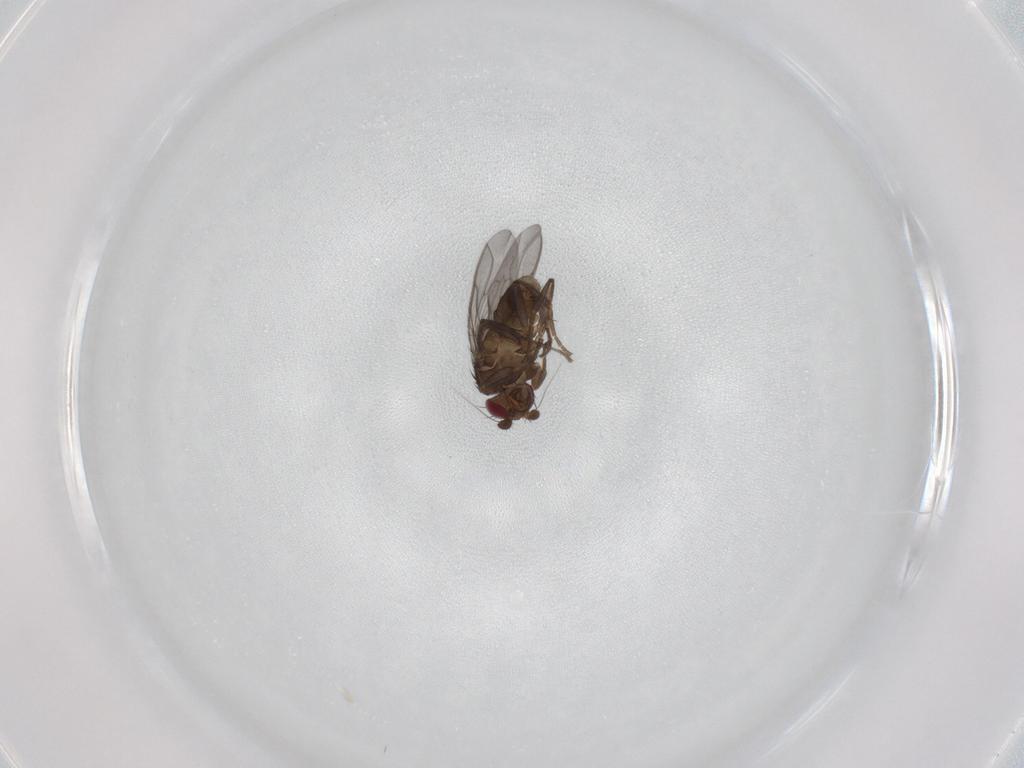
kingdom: Animalia
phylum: Arthropoda
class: Insecta
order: Diptera
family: Sphaeroceridae
